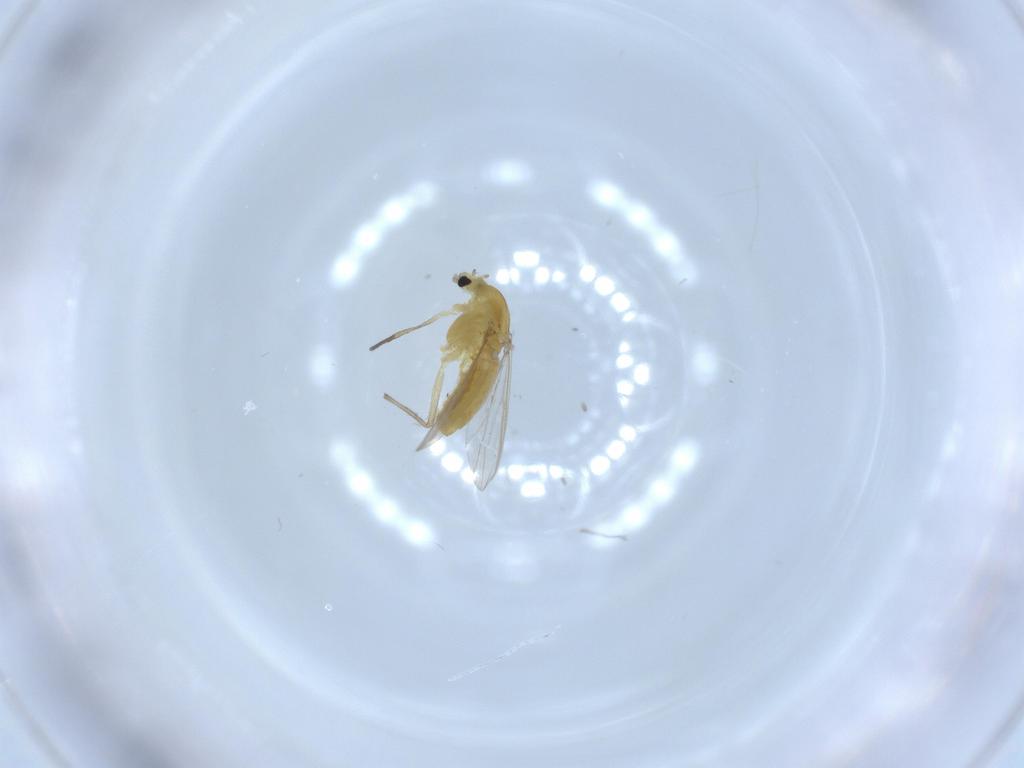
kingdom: Animalia
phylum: Arthropoda
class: Insecta
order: Diptera
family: Chironomidae
